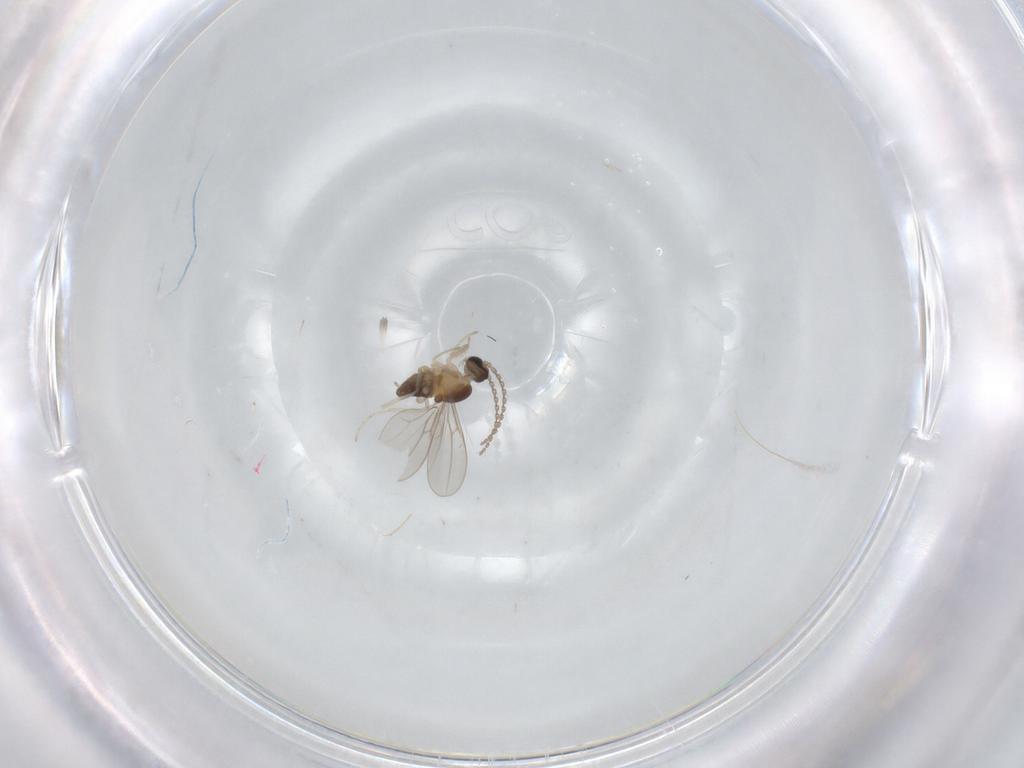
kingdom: Animalia
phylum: Arthropoda
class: Insecta
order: Diptera
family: Cecidomyiidae
